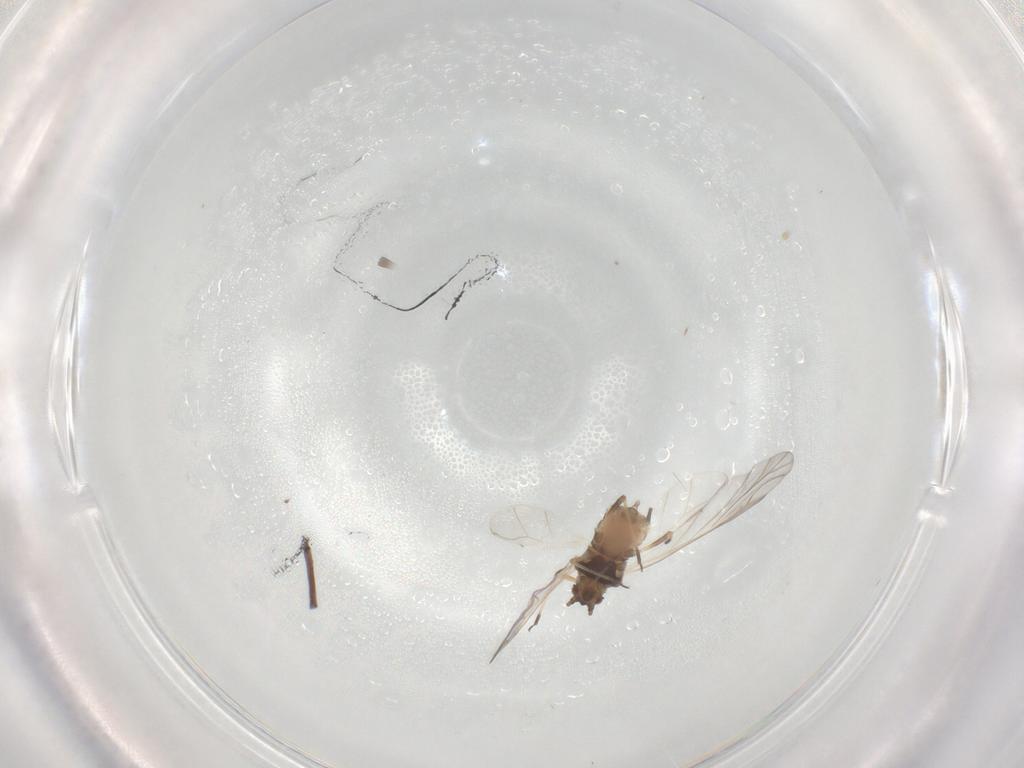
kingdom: Animalia
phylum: Arthropoda
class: Insecta
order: Hemiptera
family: Aphididae
